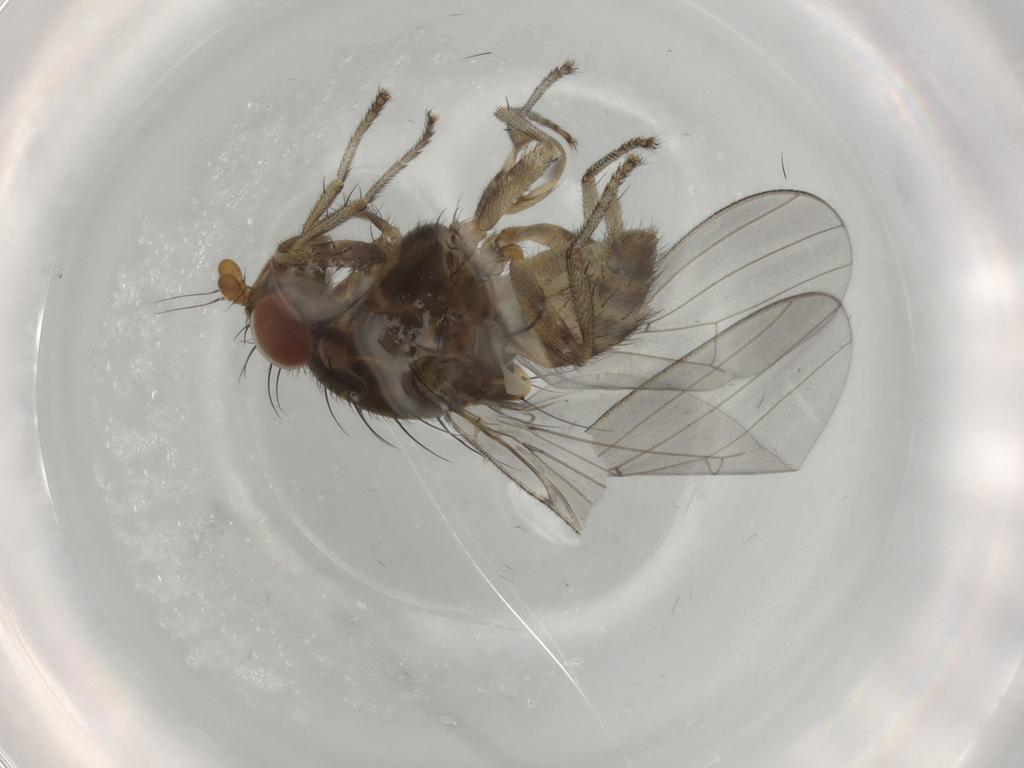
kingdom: Animalia
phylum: Arthropoda
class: Insecta
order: Diptera
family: Lauxaniidae
